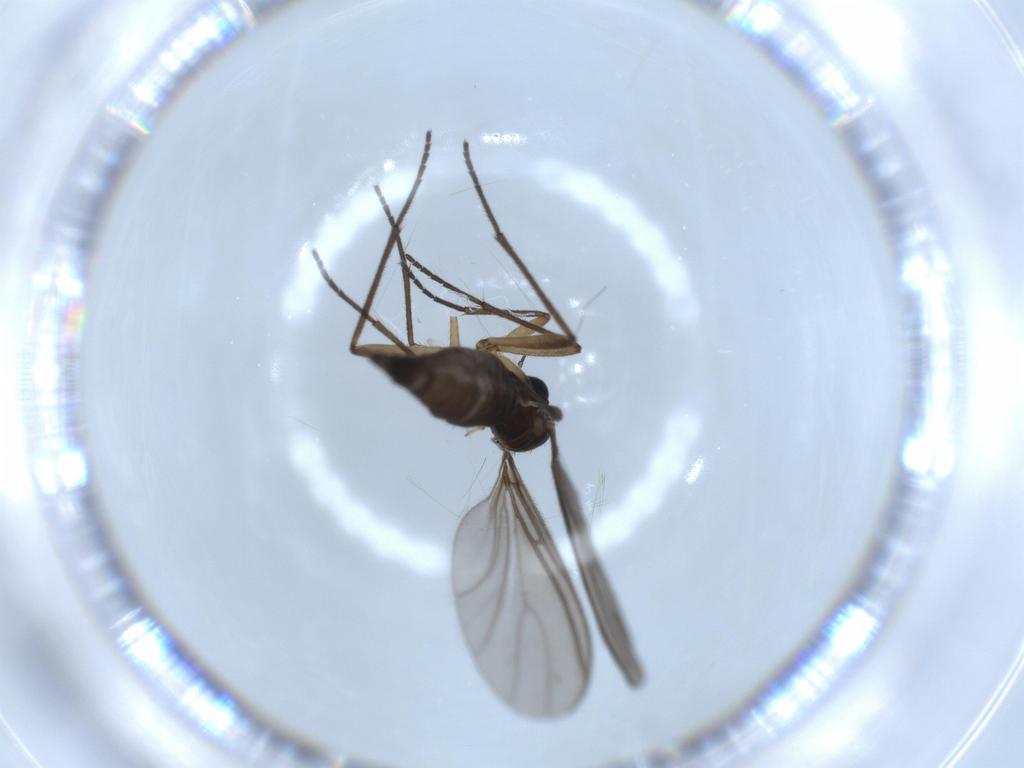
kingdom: Animalia
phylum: Arthropoda
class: Insecta
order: Diptera
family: Sciaridae
